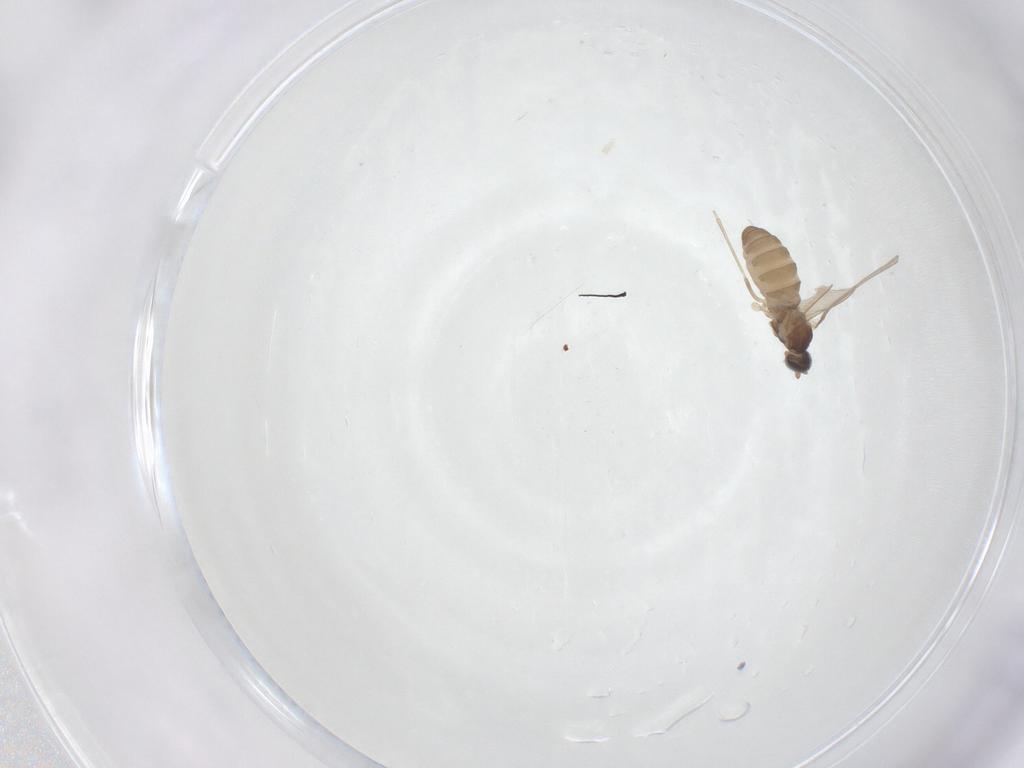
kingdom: Animalia
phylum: Arthropoda
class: Insecta
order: Diptera
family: Cecidomyiidae
